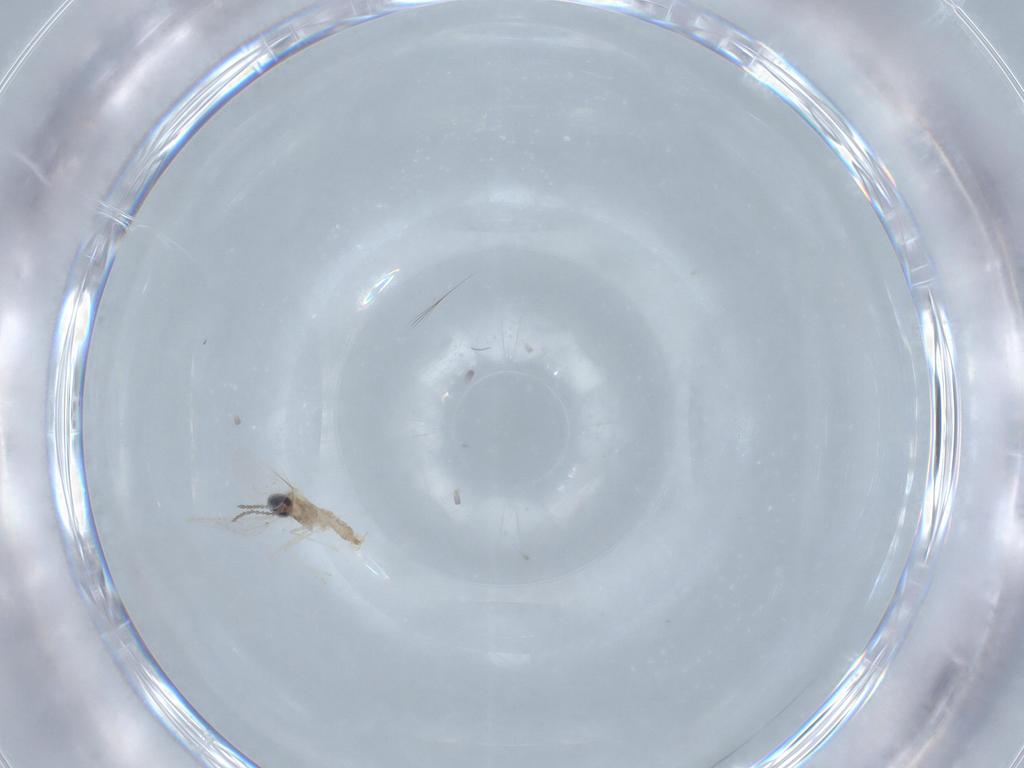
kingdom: Animalia
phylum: Arthropoda
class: Insecta
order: Diptera
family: Cecidomyiidae
